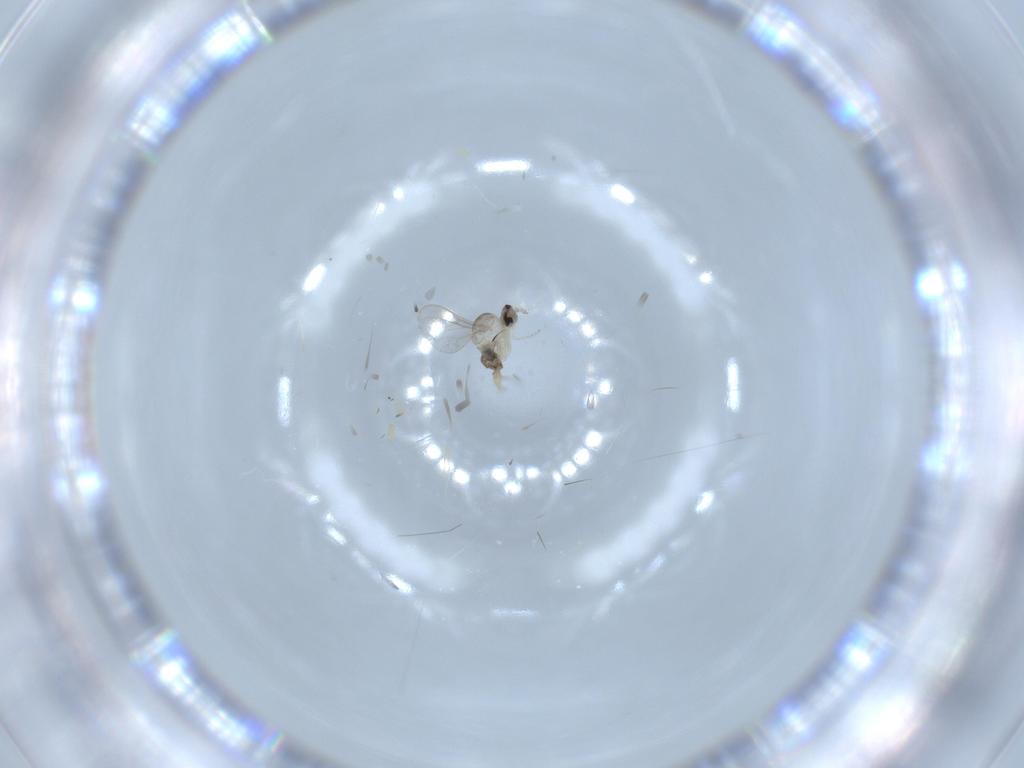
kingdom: Animalia
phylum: Arthropoda
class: Insecta
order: Diptera
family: Cecidomyiidae
